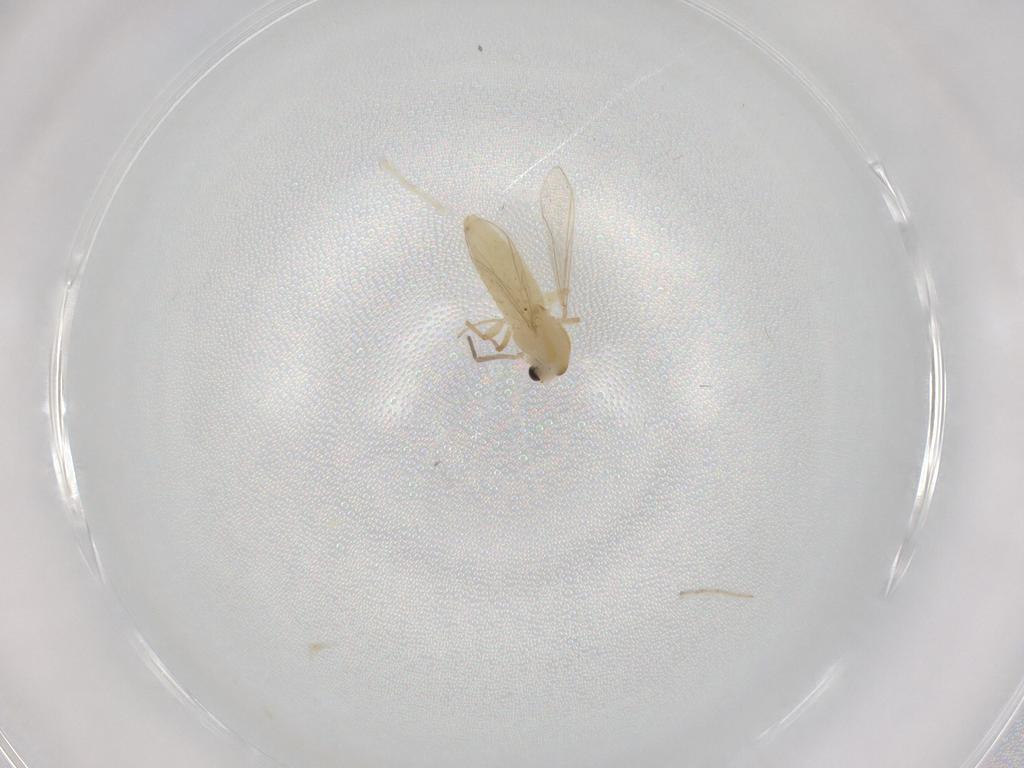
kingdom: Animalia
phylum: Arthropoda
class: Insecta
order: Diptera
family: Chironomidae
